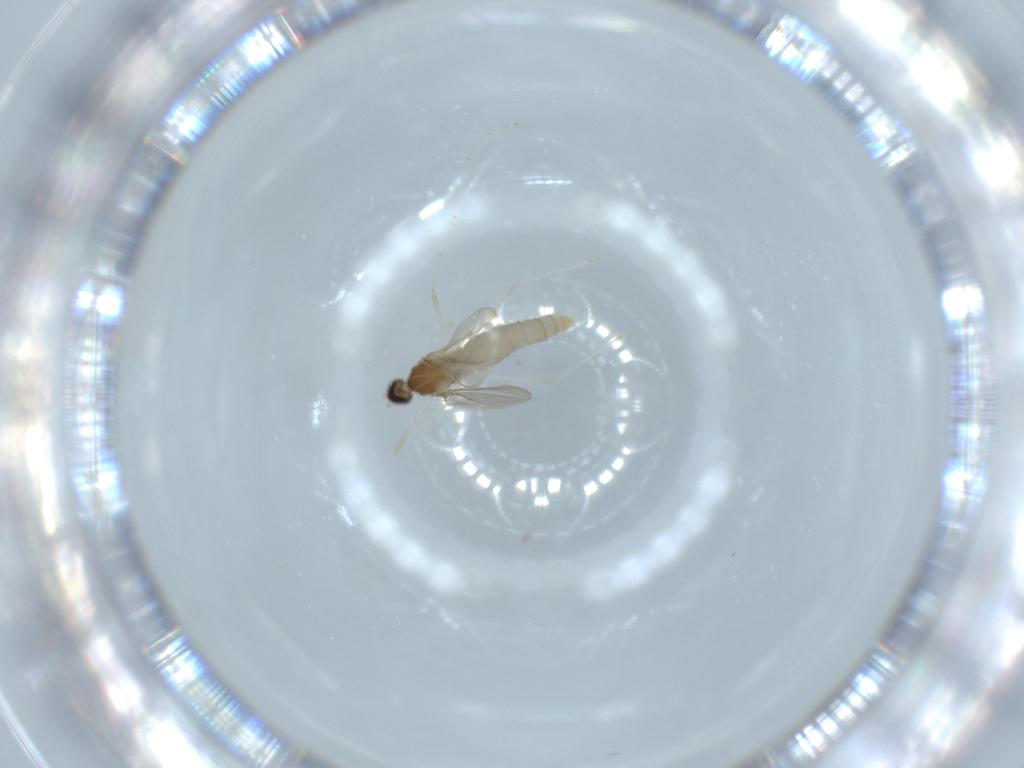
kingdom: Animalia
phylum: Arthropoda
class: Insecta
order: Diptera
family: Cecidomyiidae
